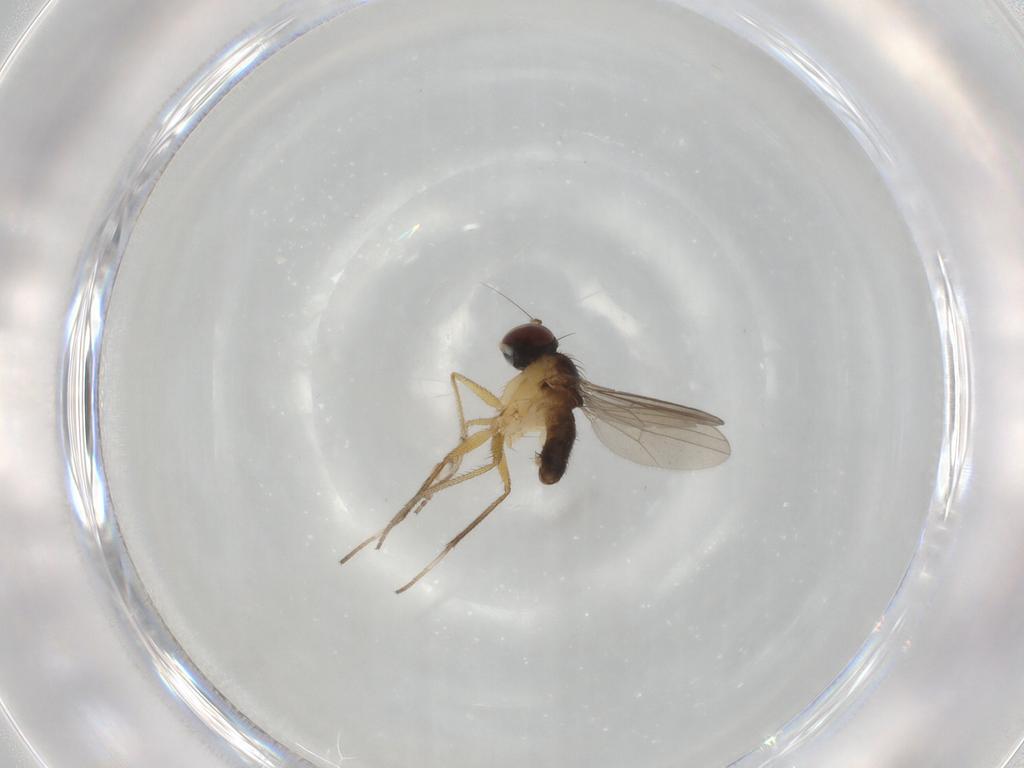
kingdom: Animalia
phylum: Arthropoda
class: Insecta
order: Diptera
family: Dolichopodidae
